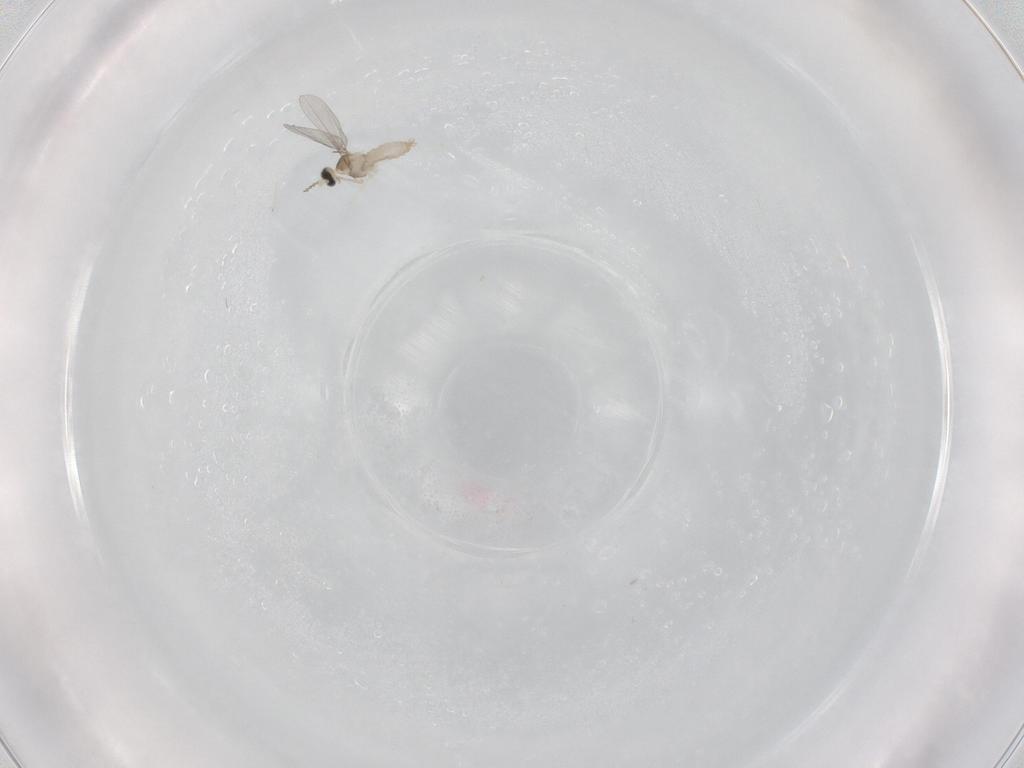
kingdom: Animalia
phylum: Arthropoda
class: Insecta
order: Diptera
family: Cecidomyiidae
